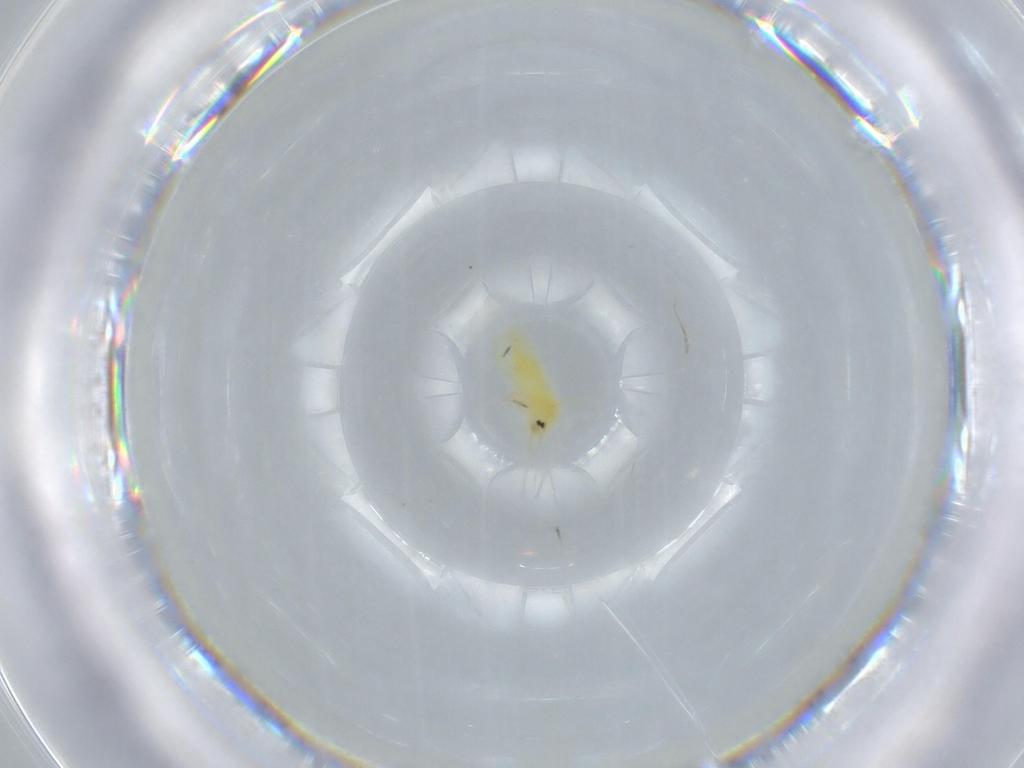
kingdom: Animalia
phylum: Arthropoda
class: Insecta
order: Hemiptera
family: Aleyrodidae
